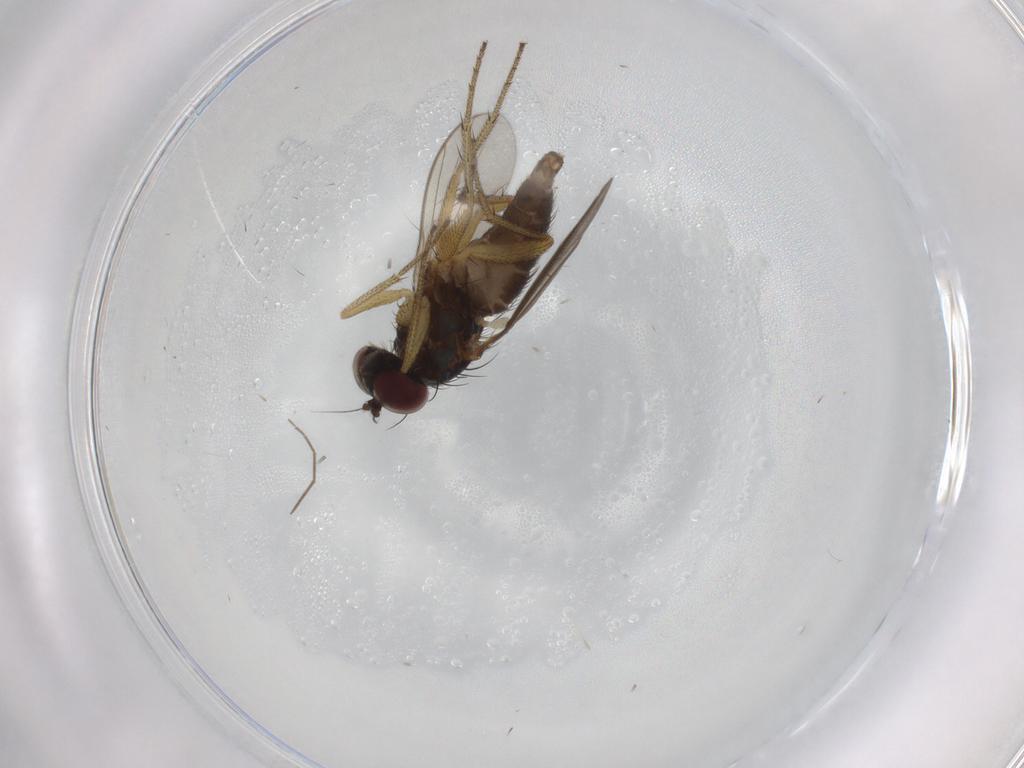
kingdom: Animalia
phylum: Arthropoda
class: Insecta
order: Diptera
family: Dolichopodidae
